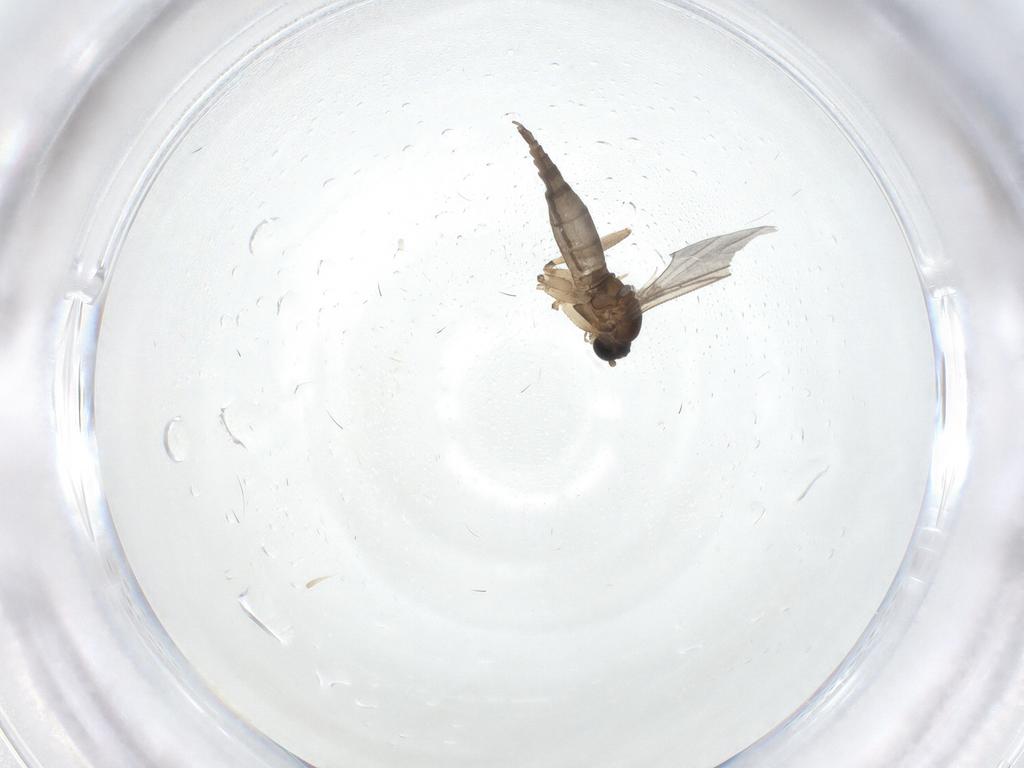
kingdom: Animalia
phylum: Arthropoda
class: Insecta
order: Diptera
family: Sciaridae
